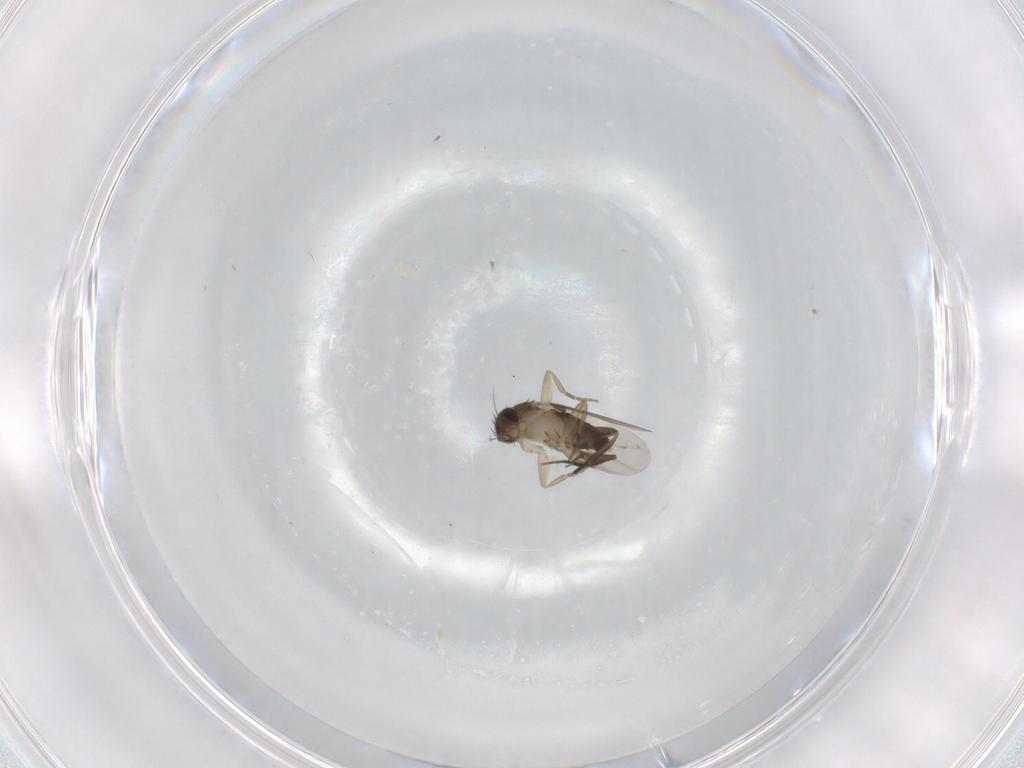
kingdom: Animalia
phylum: Arthropoda
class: Insecta
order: Diptera
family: Phoridae
